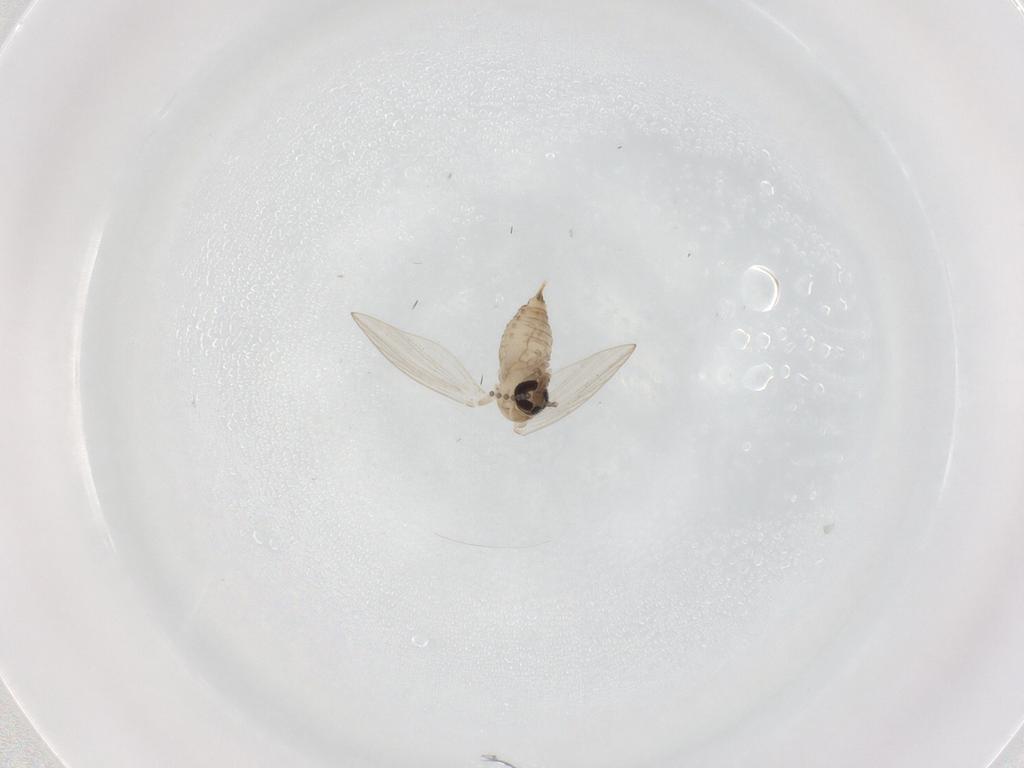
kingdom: Animalia
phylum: Arthropoda
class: Insecta
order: Diptera
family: Psychodidae
